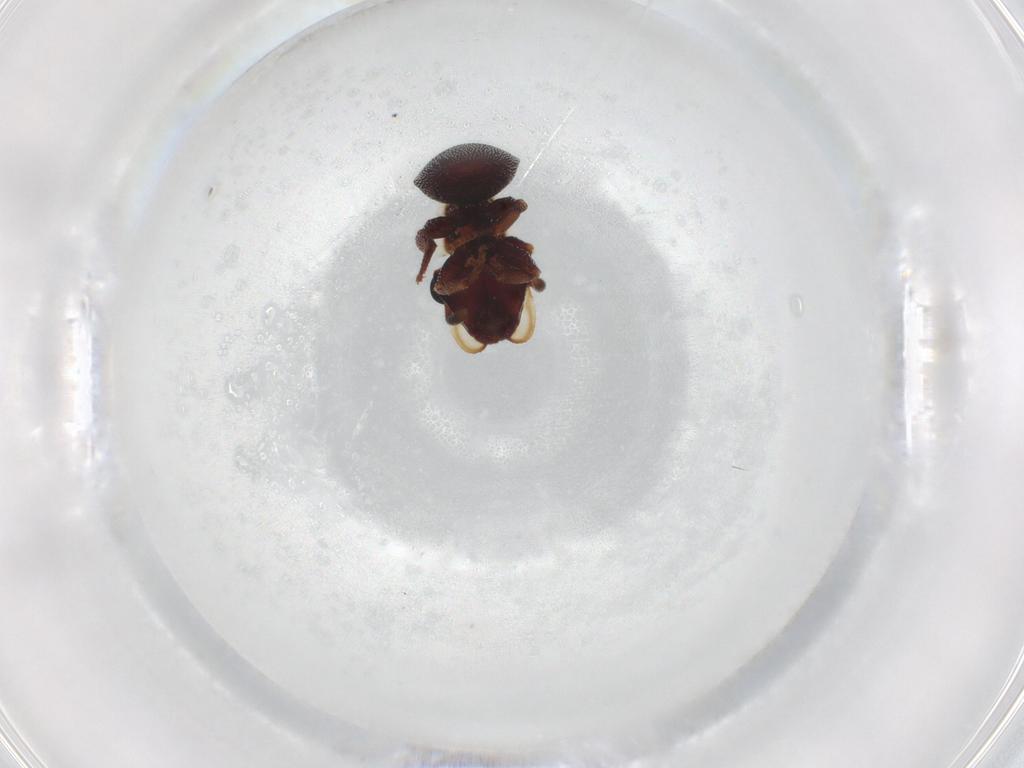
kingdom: Animalia
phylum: Arthropoda
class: Insecta
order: Hymenoptera
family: Formicidae
